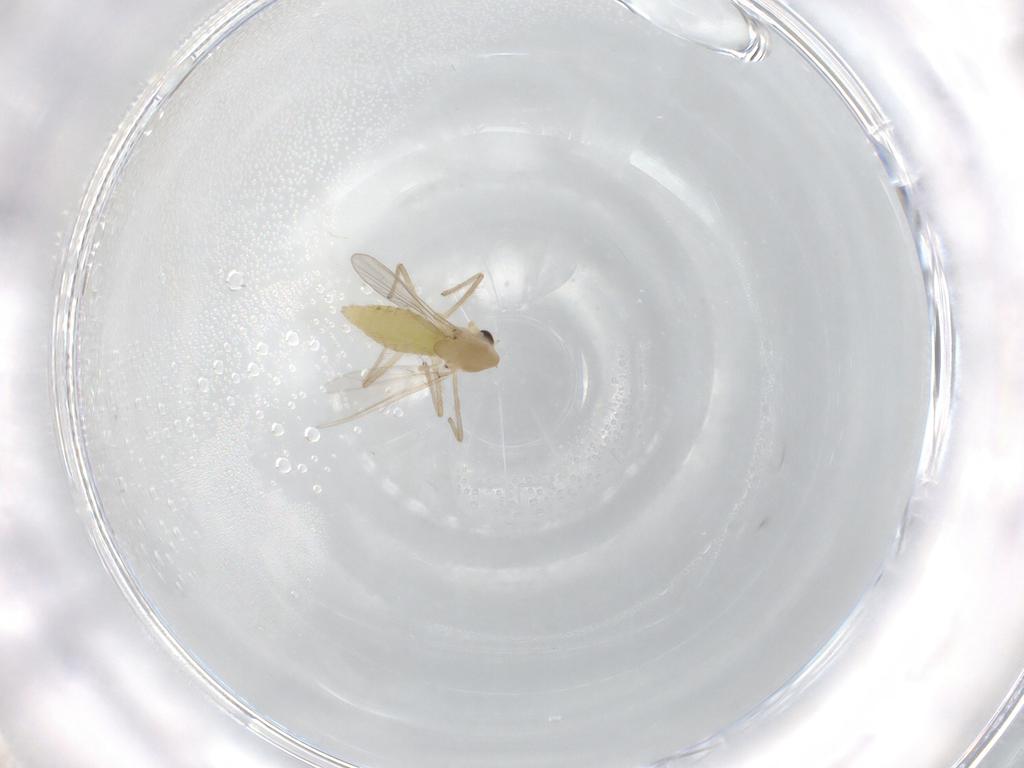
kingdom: Animalia
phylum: Arthropoda
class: Insecta
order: Diptera
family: Chironomidae
